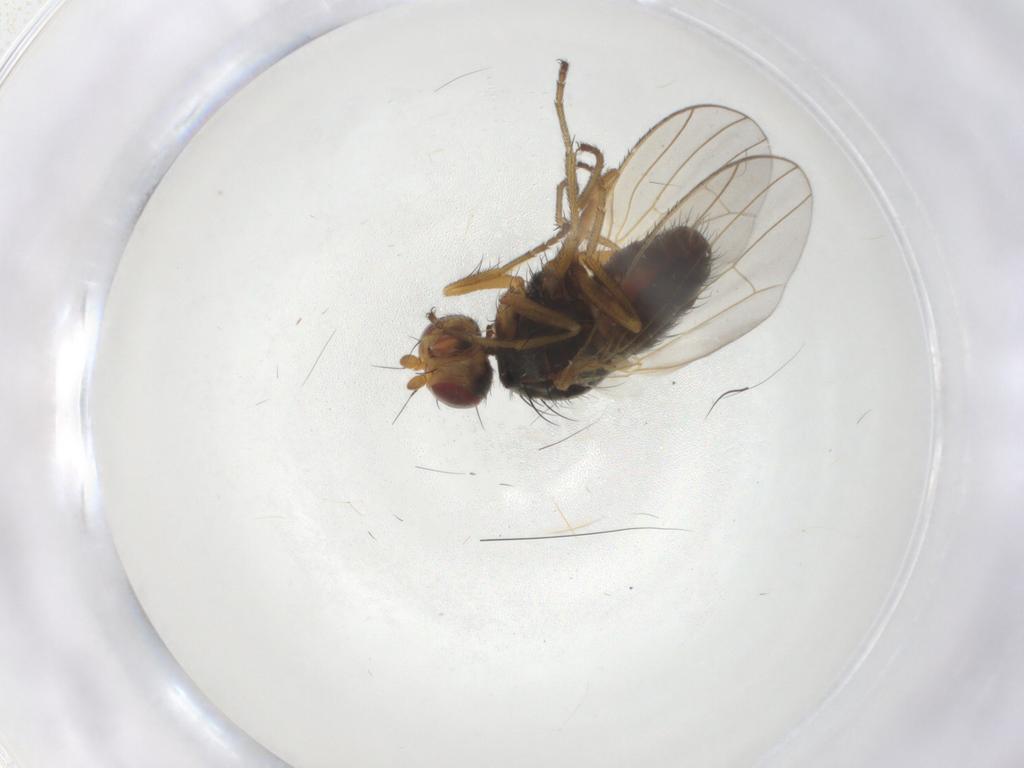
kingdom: Animalia
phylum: Arthropoda
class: Insecta
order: Diptera
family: Heleomyzidae
